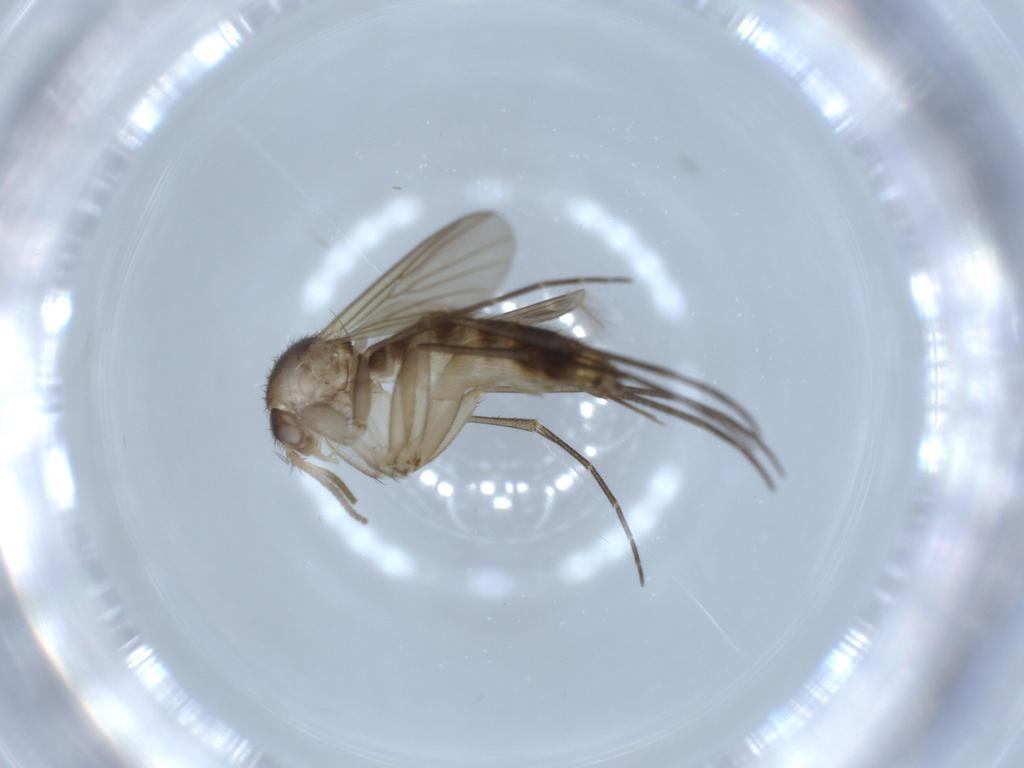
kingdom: Animalia
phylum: Arthropoda
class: Insecta
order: Diptera
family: Mycetophilidae
